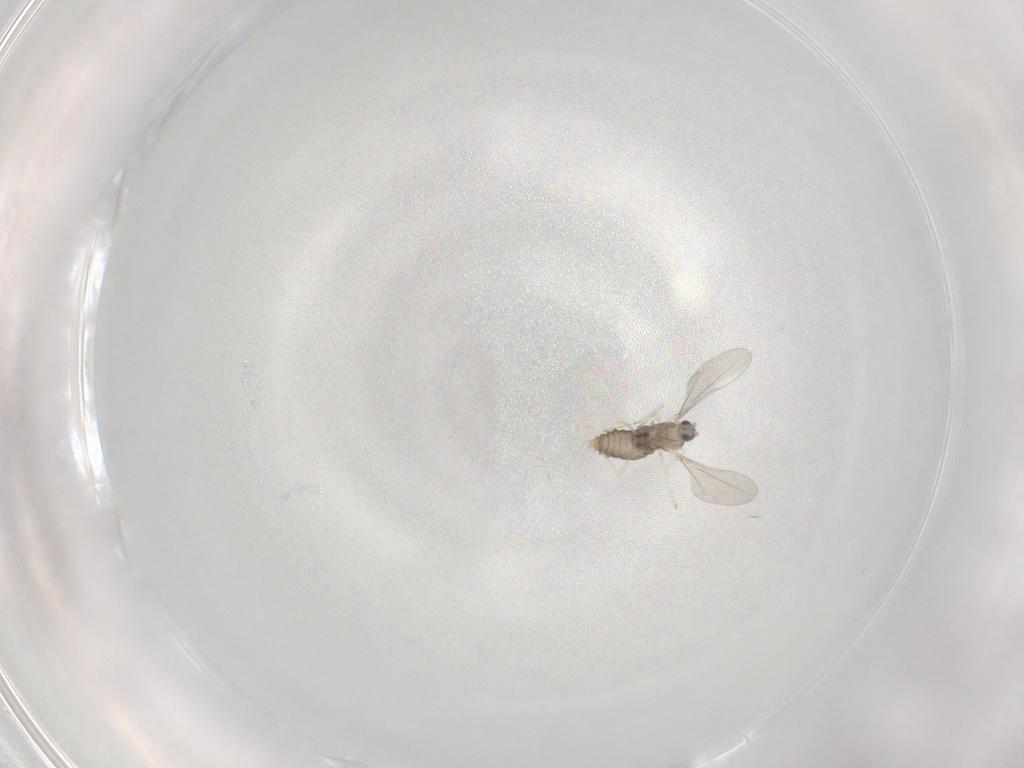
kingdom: Animalia
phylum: Arthropoda
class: Insecta
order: Diptera
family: Cecidomyiidae
